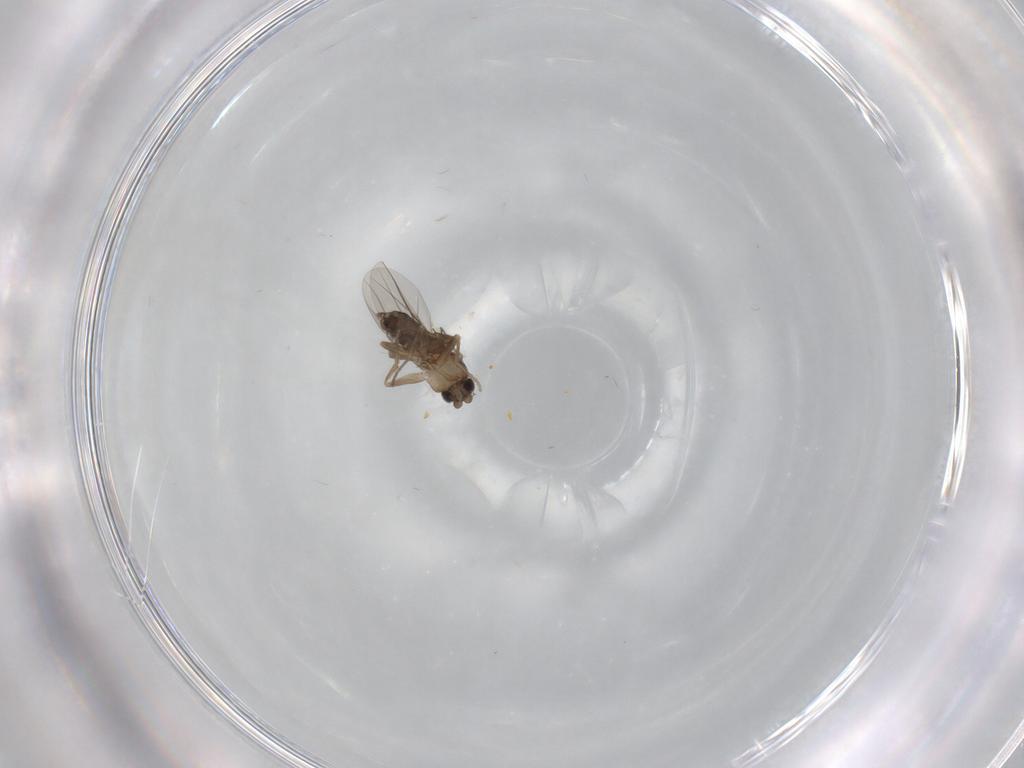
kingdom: Animalia
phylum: Arthropoda
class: Insecta
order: Diptera
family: Phoridae
